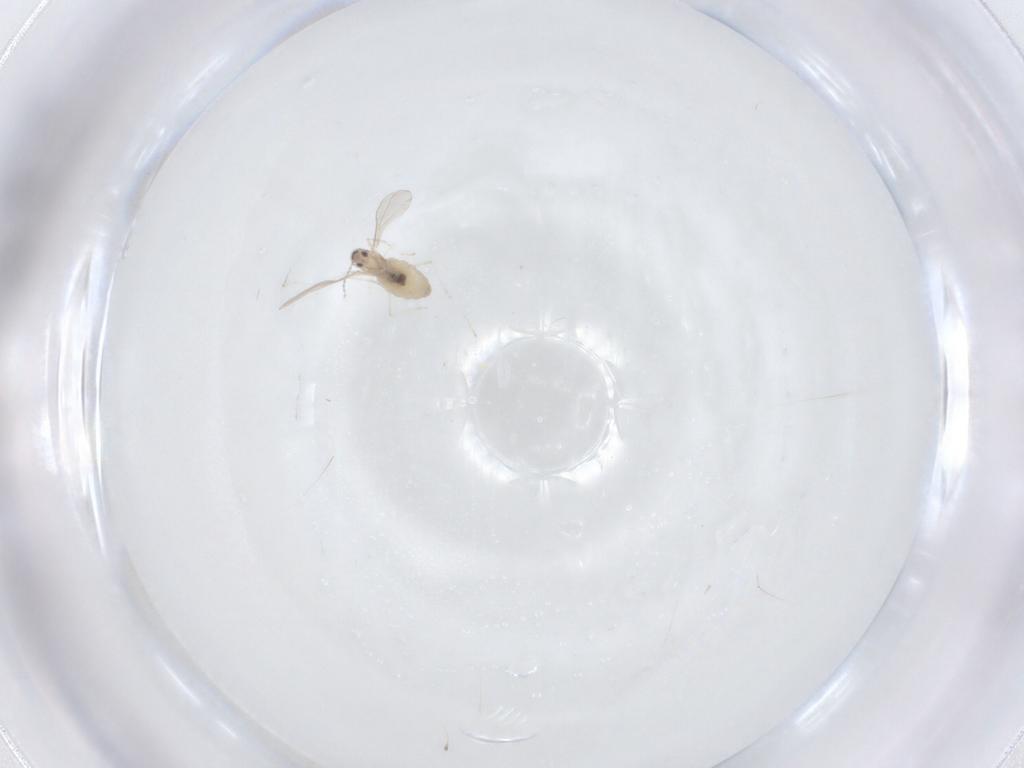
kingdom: Animalia
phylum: Arthropoda
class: Insecta
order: Diptera
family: Cecidomyiidae
